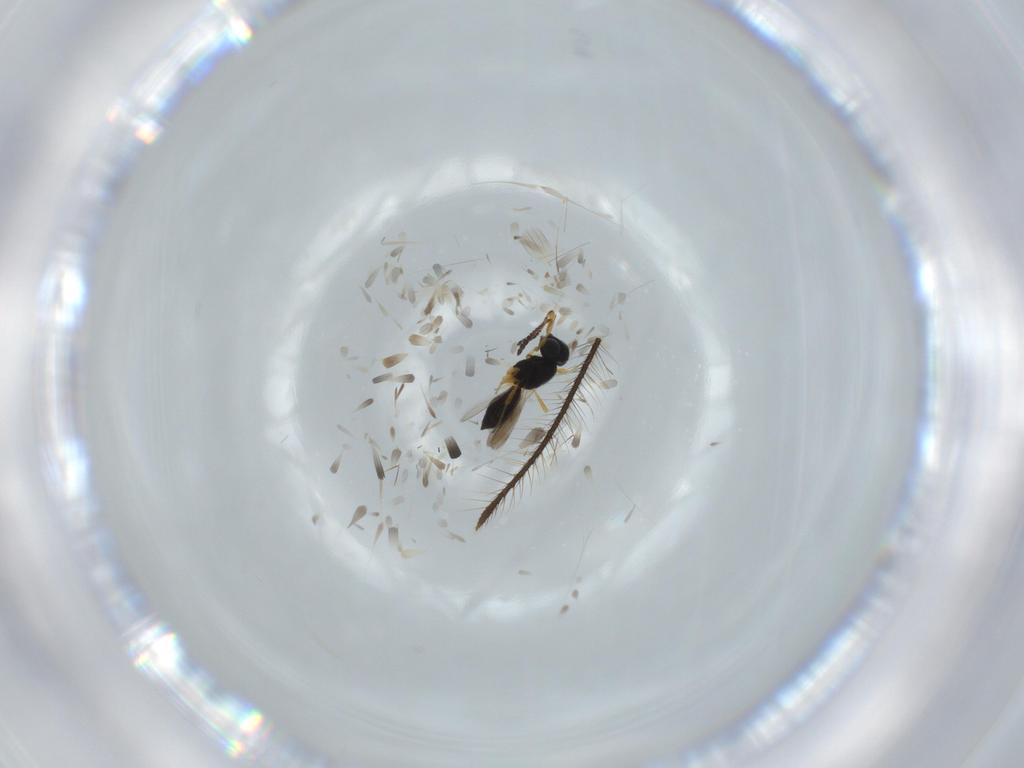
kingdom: Animalia
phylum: Arthropoda
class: Insecta
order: Hymenoptera
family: Scelionidae
